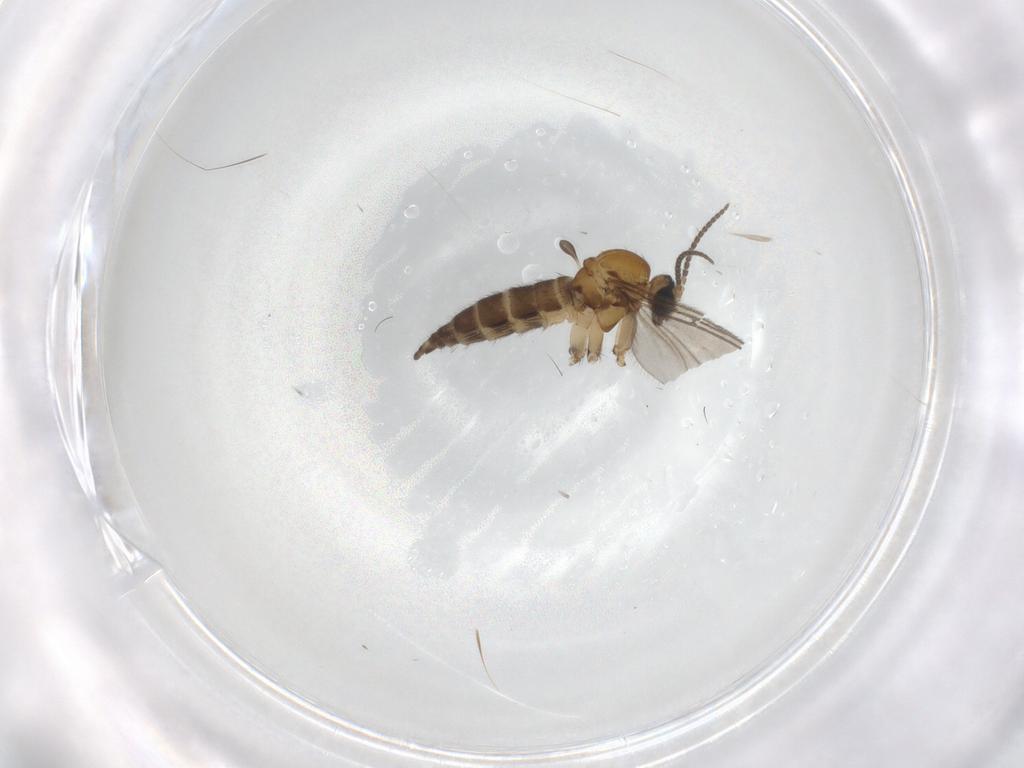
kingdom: Animalia
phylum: Arthropoda
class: Insecta
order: Diptera
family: Sciaridae
